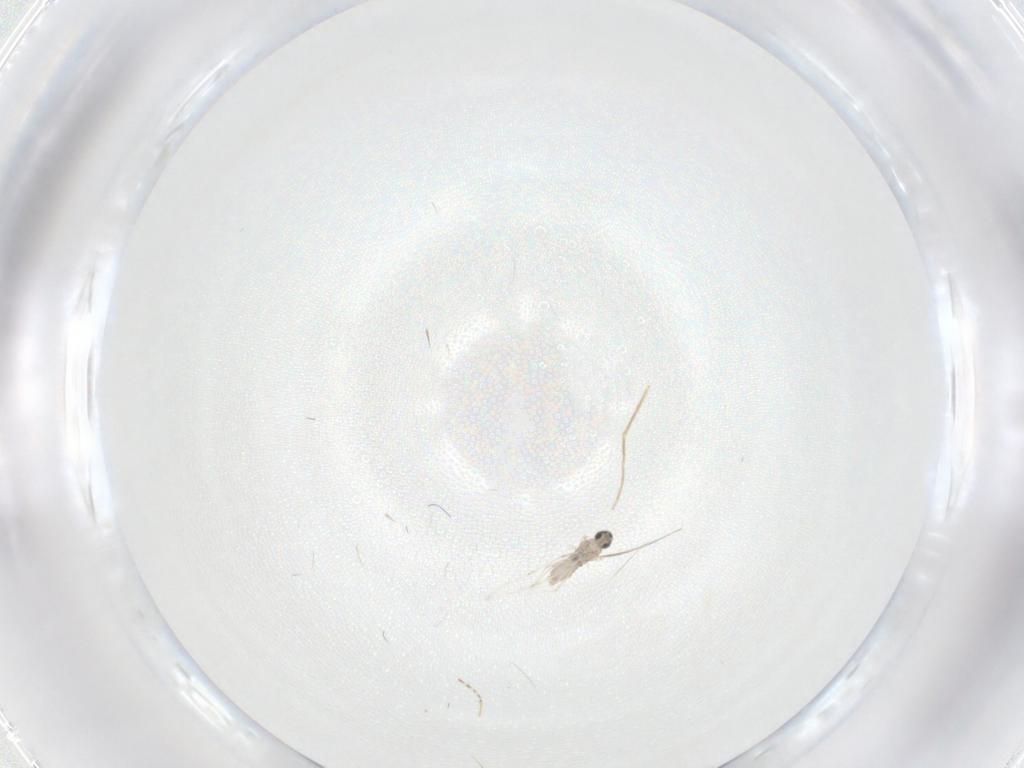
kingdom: Animalia
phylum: Arthropoda
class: Insecta
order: Diptera
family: Ceratopogonidae
